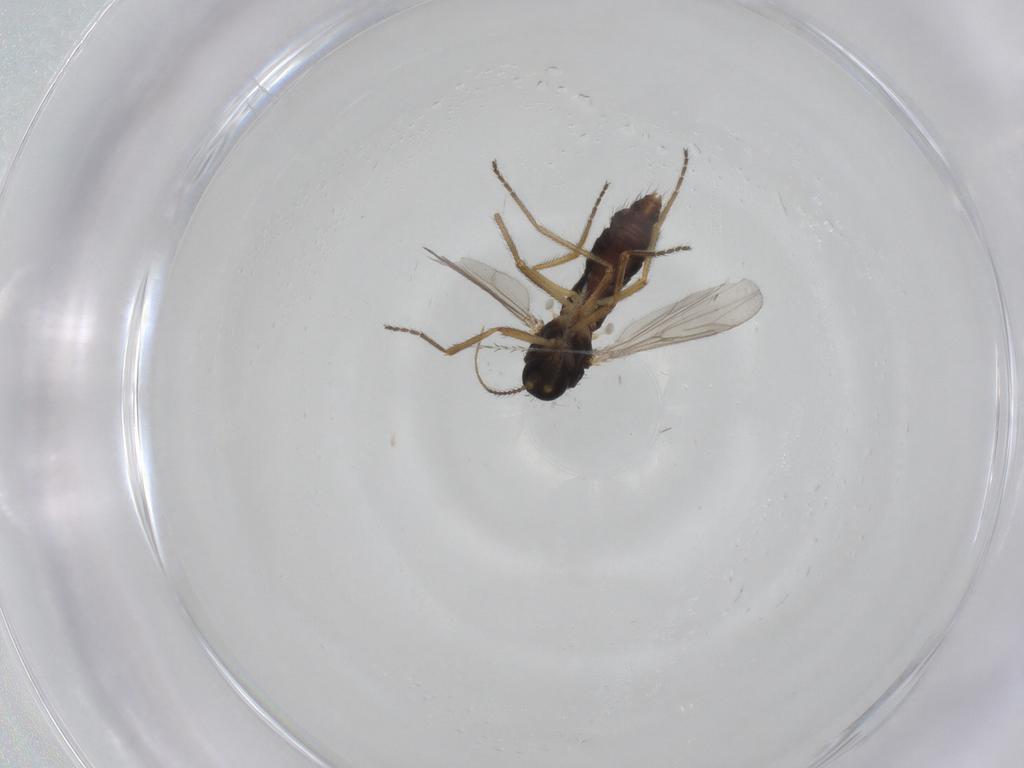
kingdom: Animalia
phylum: Arthropoda
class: Insecta
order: Diptera
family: Ceratopogonidae
